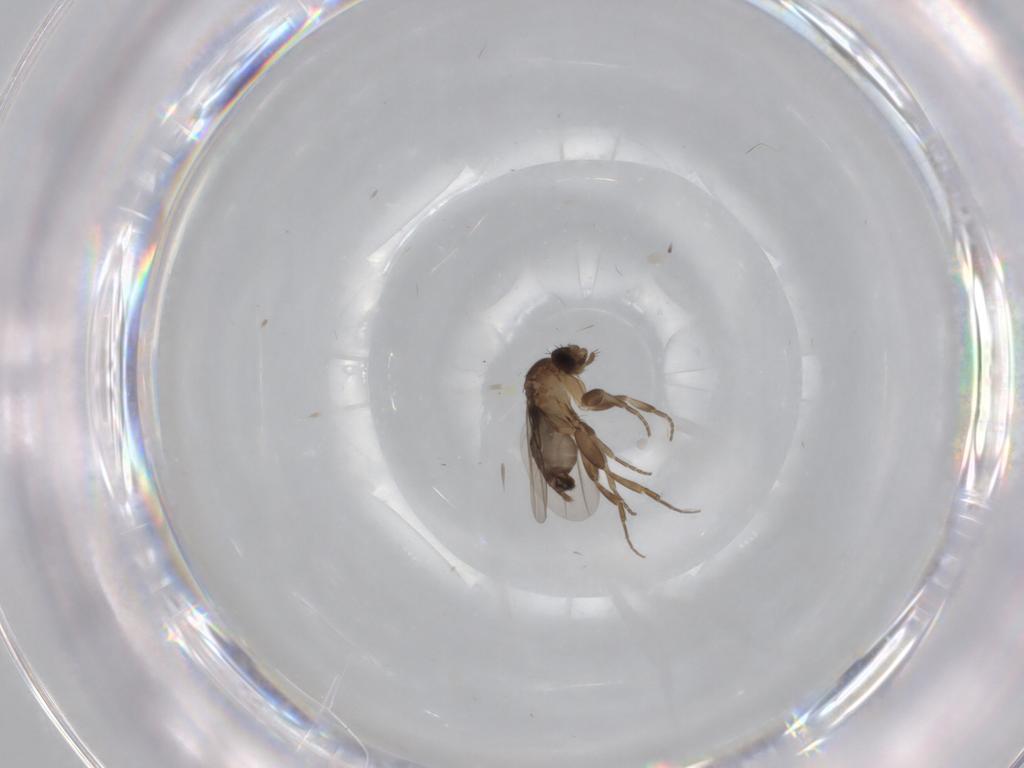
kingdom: Animalia
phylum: Arthropoda
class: Insecta
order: Diptera
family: Phoridae
